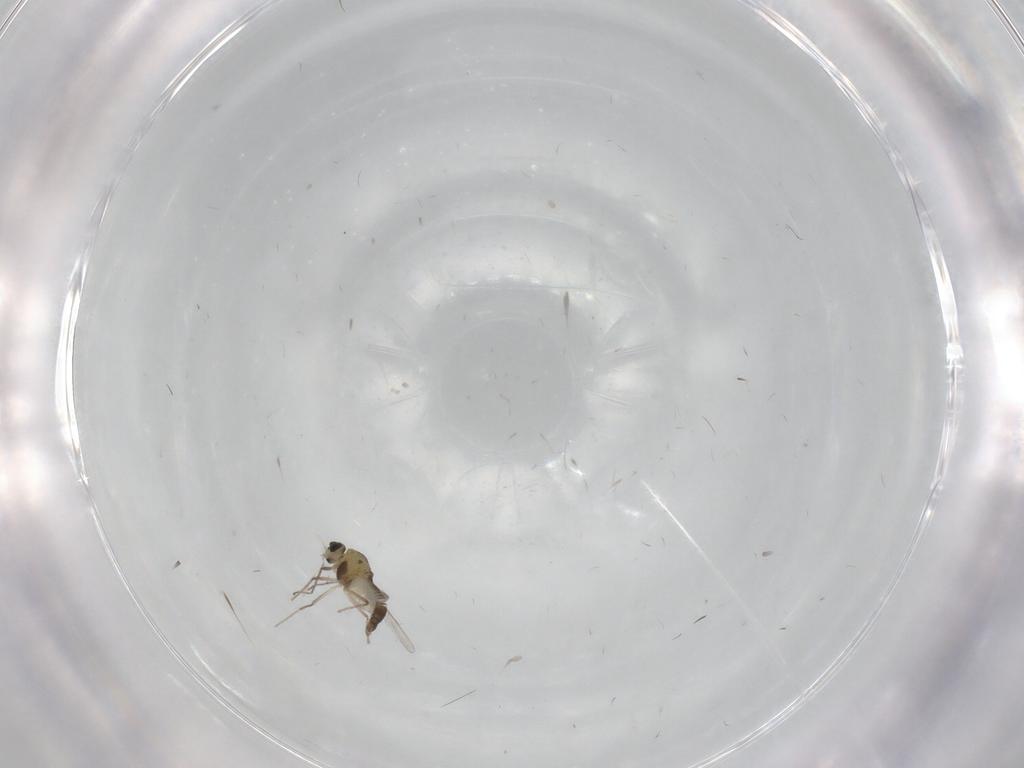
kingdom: Animalia
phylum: Arthropoda
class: Insecta
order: Diptera
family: Chironomidae
